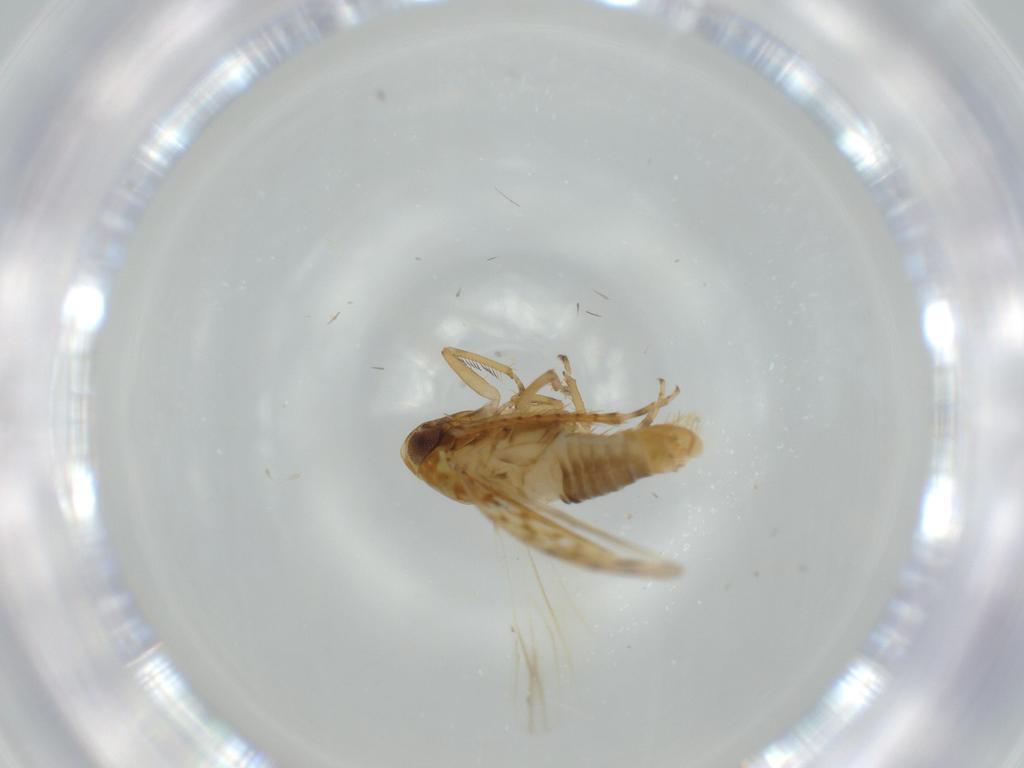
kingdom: Animalia
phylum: Arthropoda
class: Insecta
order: Hemiptera
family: Cicadellidae
